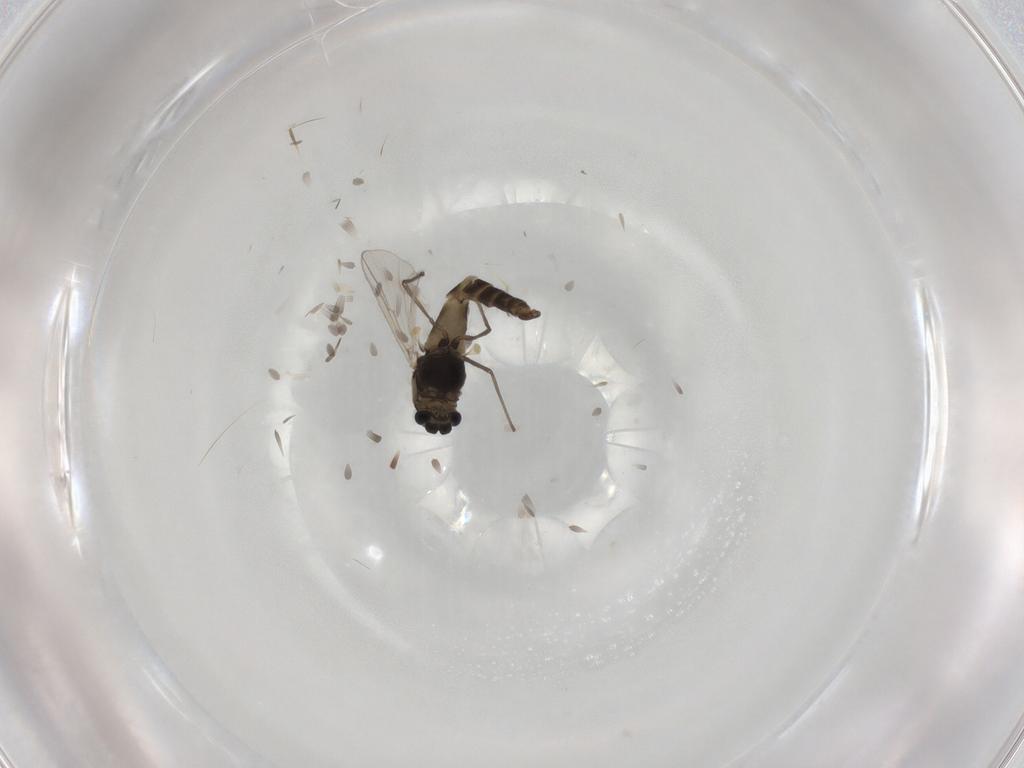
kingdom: Animalia
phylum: Arthropoda
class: Insecta
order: Diptera
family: Chironomidae
